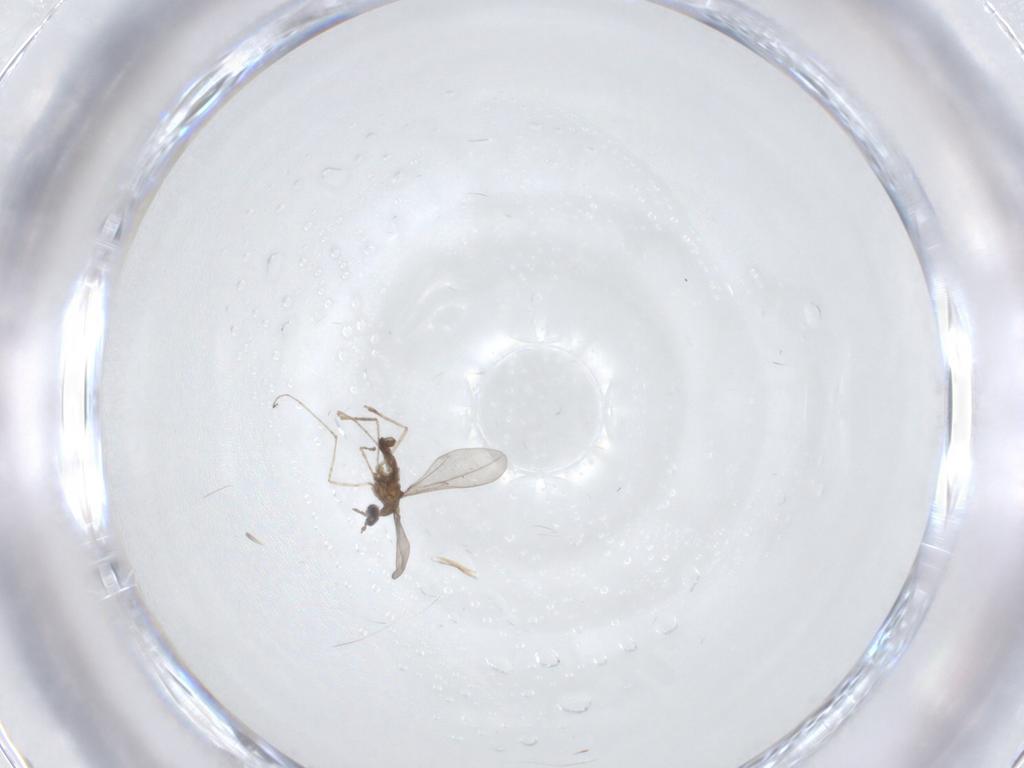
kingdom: Animalia
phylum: Arthropoda
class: Insecta
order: Diptera
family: Cecidomyiidae
